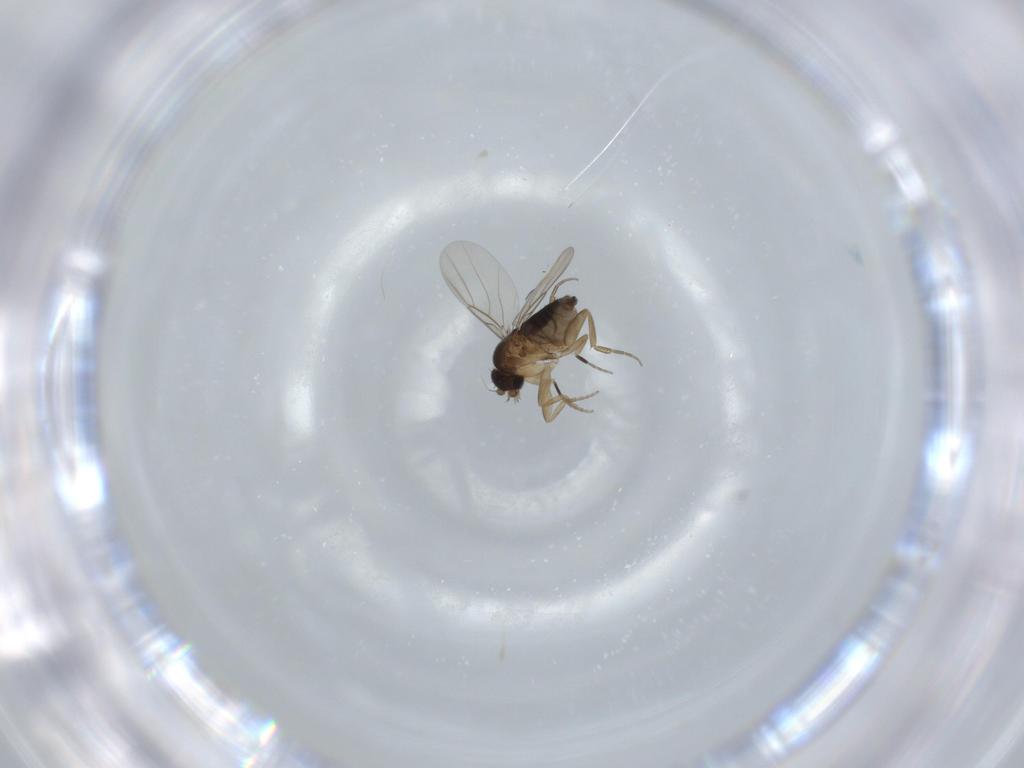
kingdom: Animalia
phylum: Arthropoda
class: Insecta
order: Diptera
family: Phoridae
